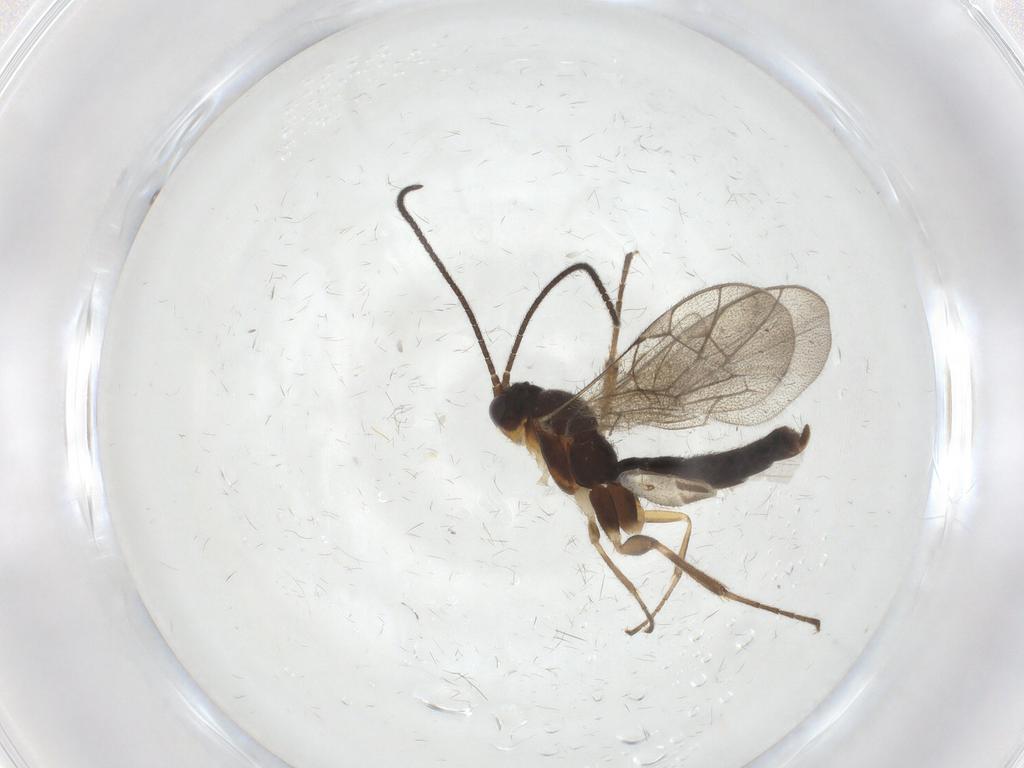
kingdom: Animalia
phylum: Arthropoda
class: Insecta
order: Hymenoptera
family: Ichneumonidae
